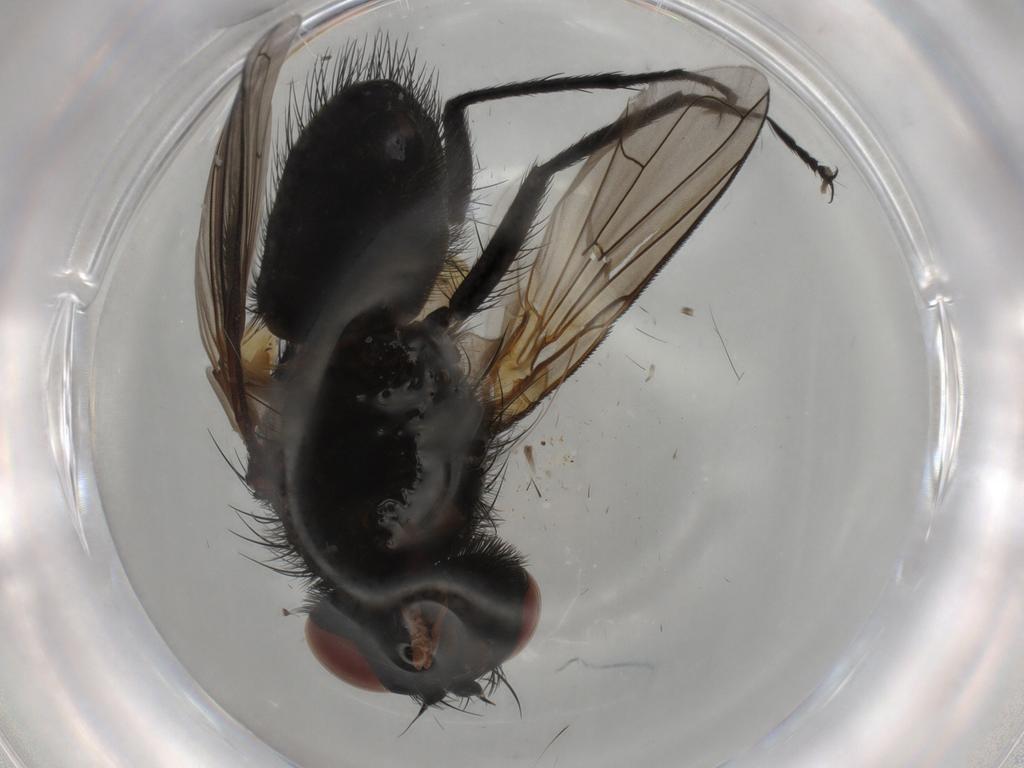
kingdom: Animalia
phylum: Arthropoda
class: Insecta
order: Diptera
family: Tachinidae
